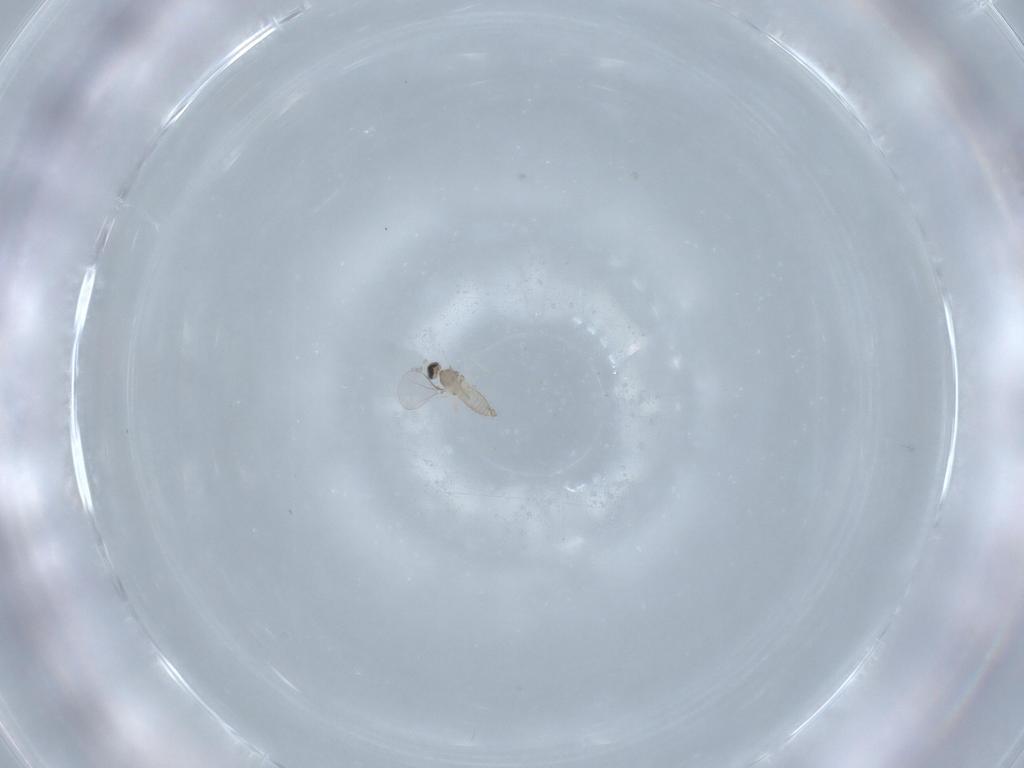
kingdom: Animalia
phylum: Arthropoda
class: Insecta
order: Diptera
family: Cecidomyiidae
